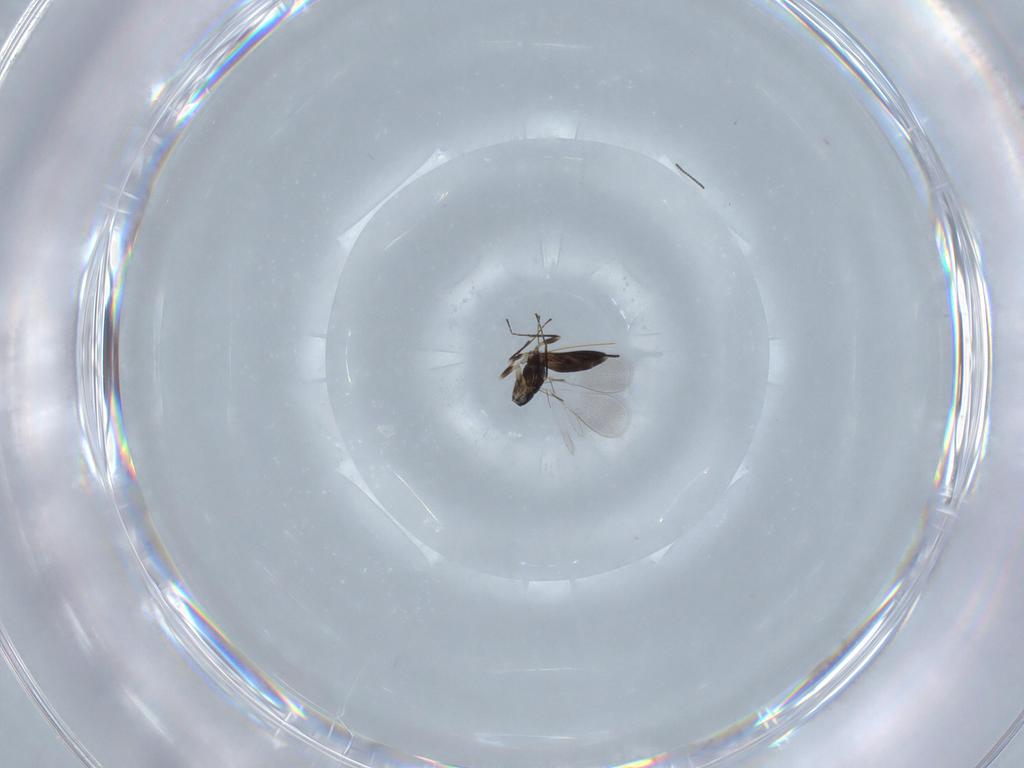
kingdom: Animalia
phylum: Arthropoda
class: Insecta
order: Hymenoptera
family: Mymaridae
